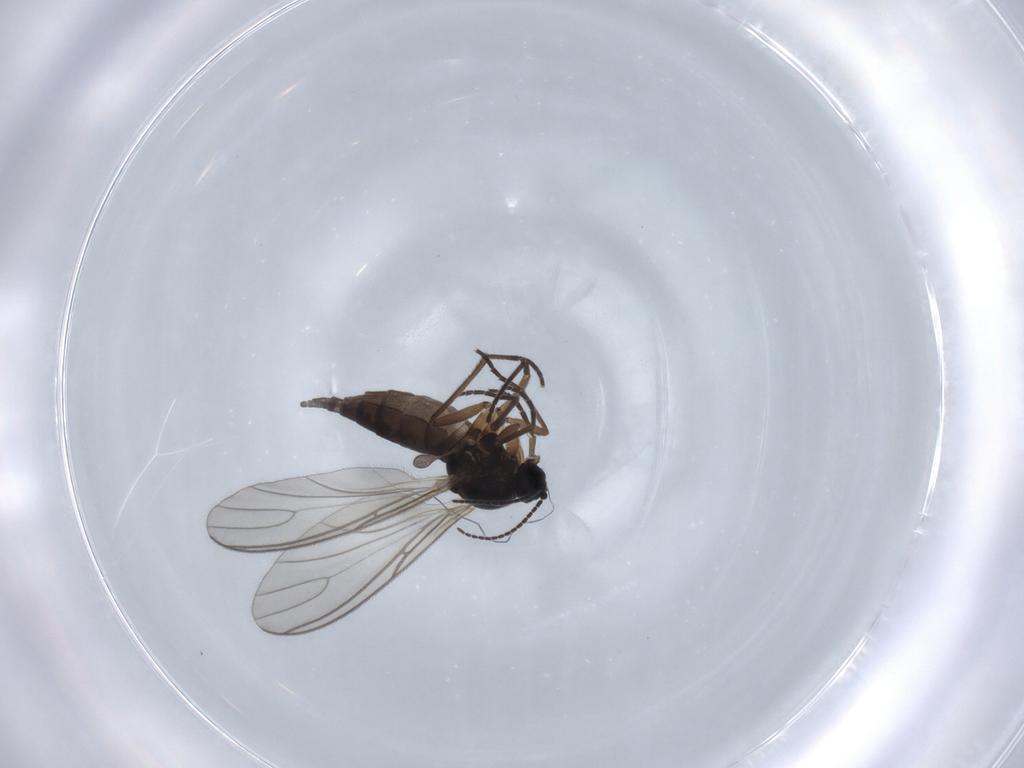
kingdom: Animalia
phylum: Arthropoda
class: Insecta
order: Diptera
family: Sciaridae
